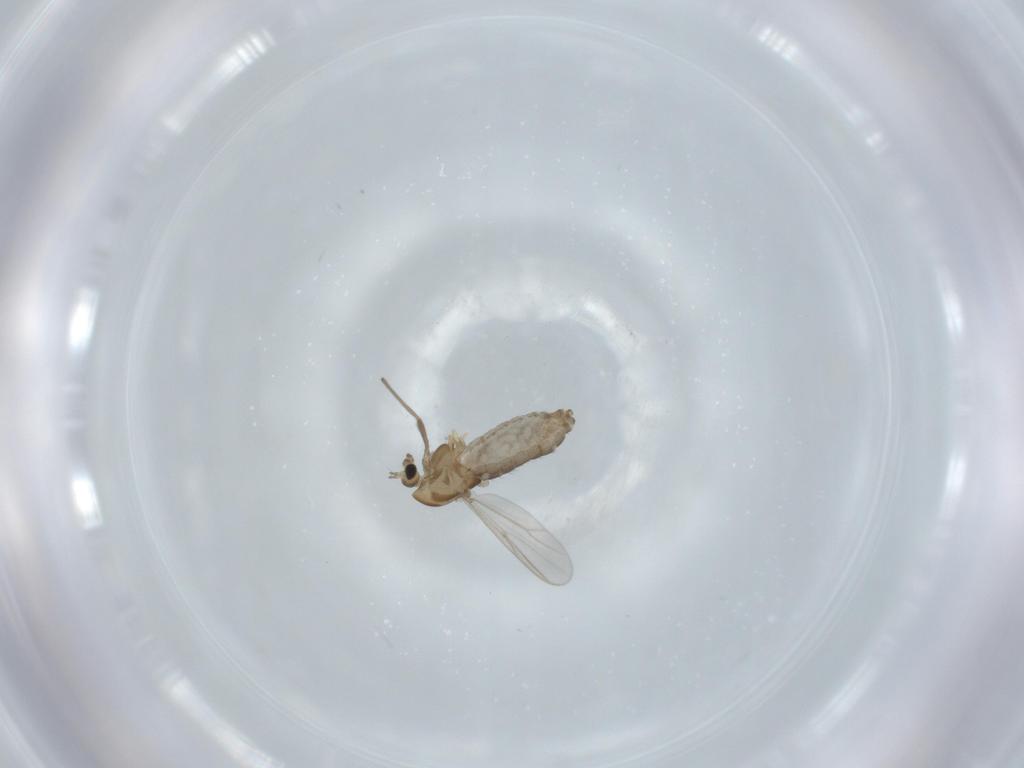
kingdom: Animalia
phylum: Arthropoda
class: Insecta
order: Diptera
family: Chironomidae
